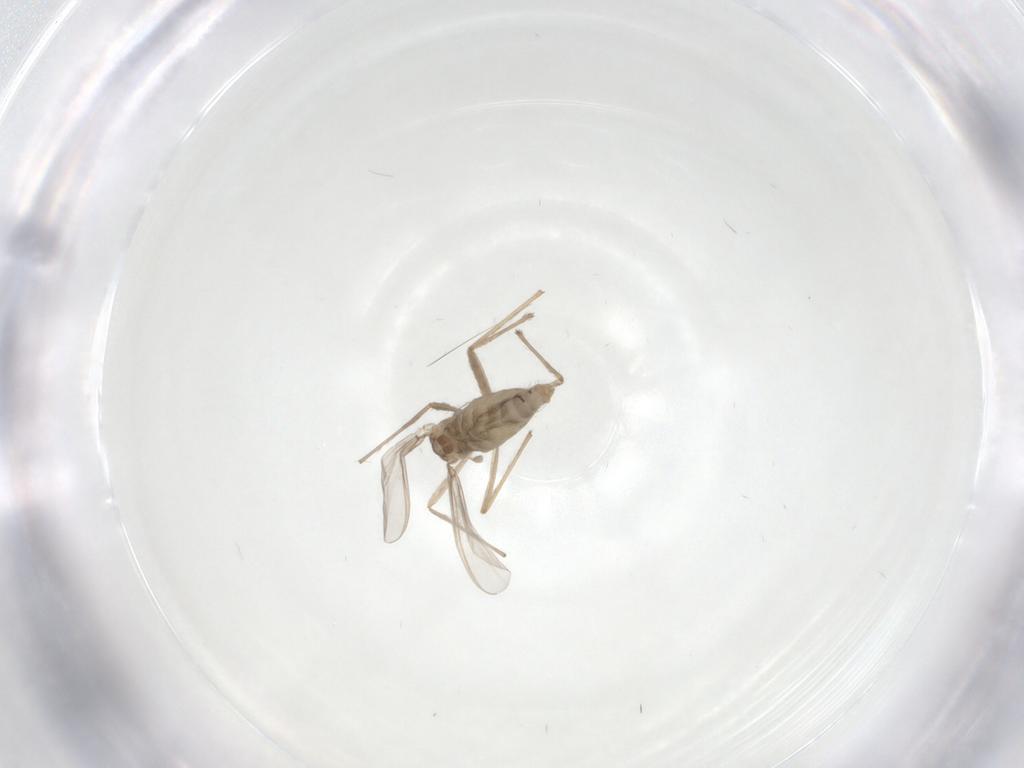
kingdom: Animalia
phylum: Arthropoda
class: Insecta
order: Diptera
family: Chironomidae
